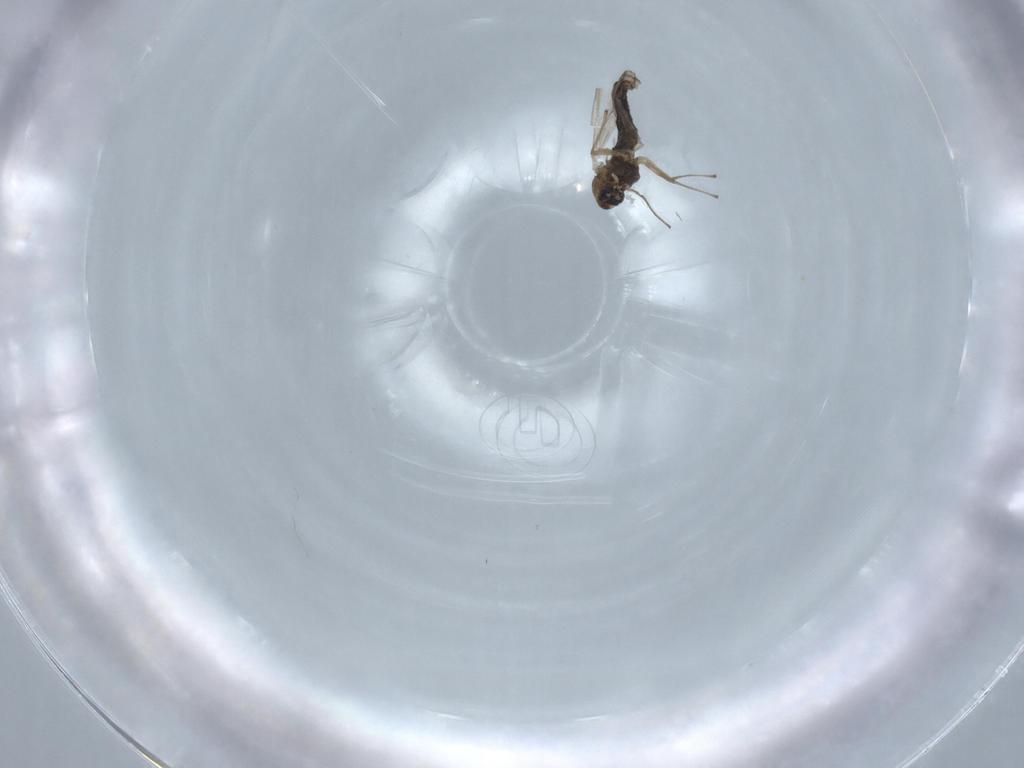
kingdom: Animalia
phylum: Arthropoda
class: Insecta
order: Diptera
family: Chironomidae
